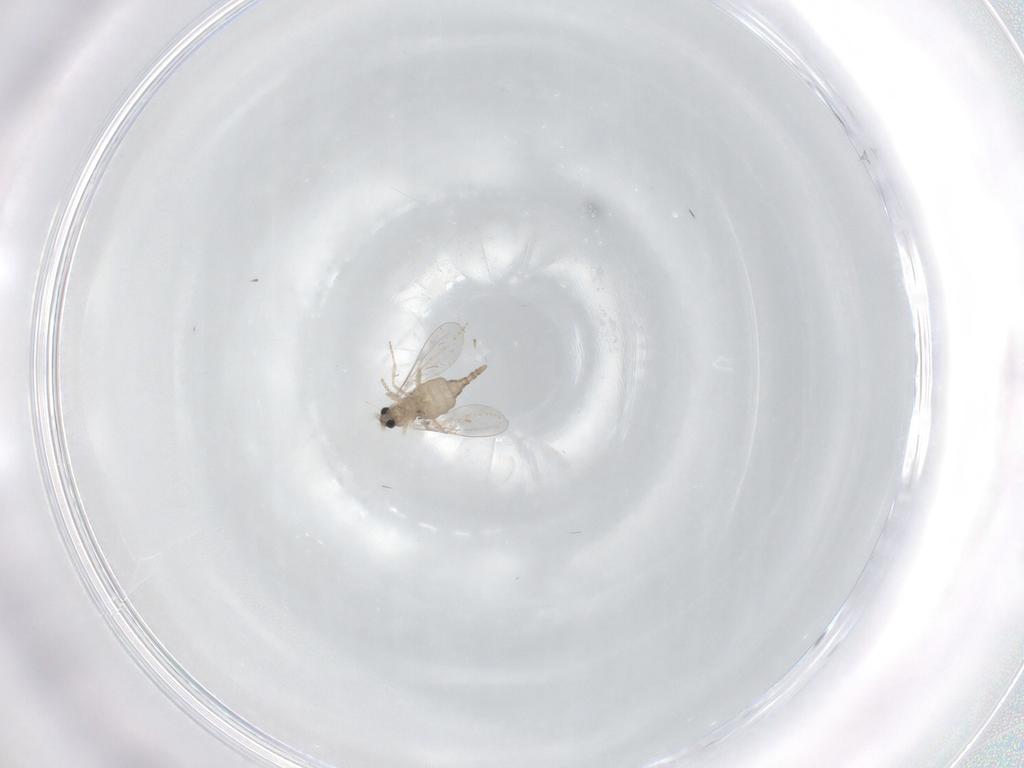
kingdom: Animalia
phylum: Arthropoda
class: Insecta
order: Diptera
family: Cecidomyiidae
